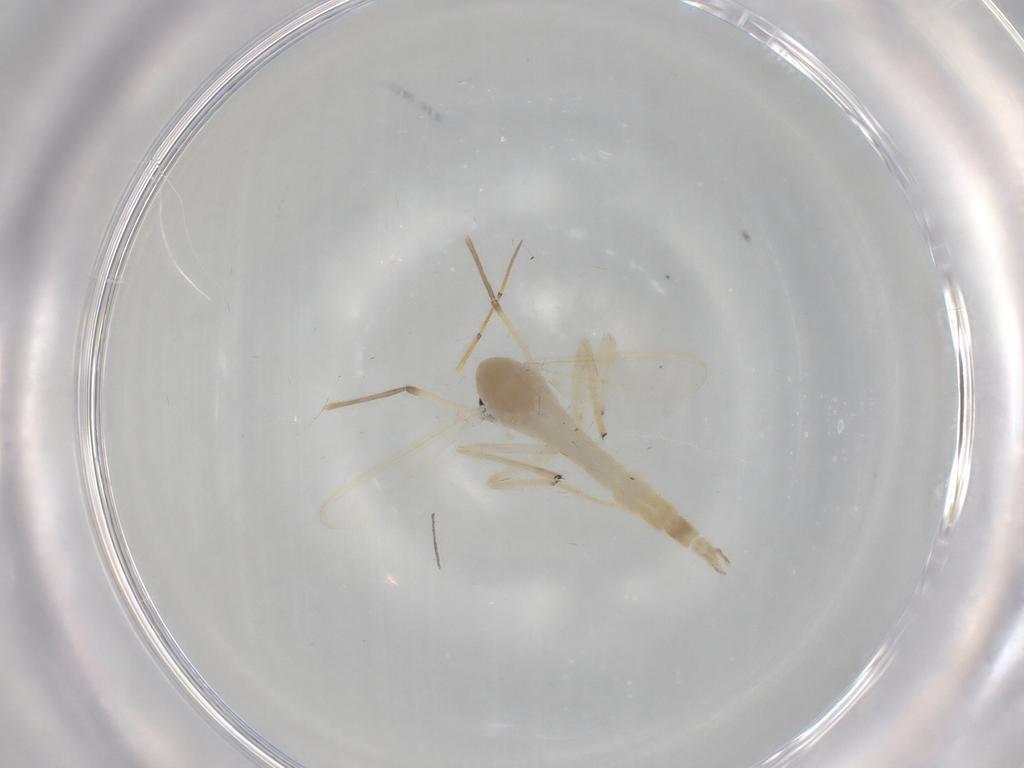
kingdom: Animalia
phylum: Arthropoda
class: Insecta
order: Diptera
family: Chironomidae
